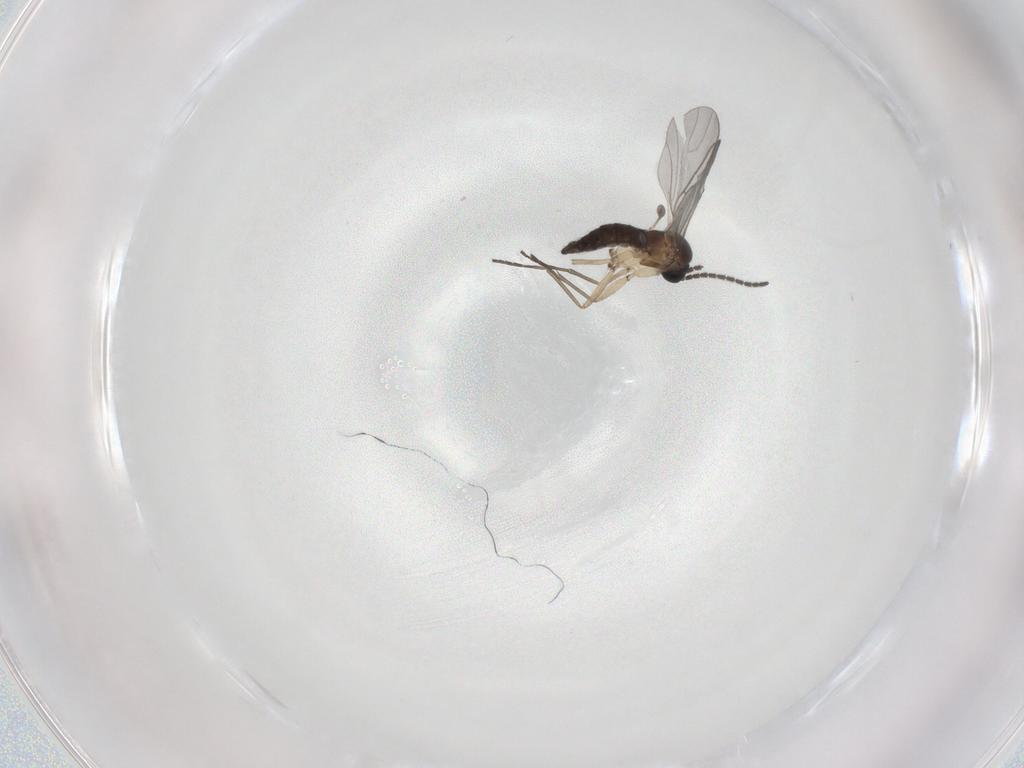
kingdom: Animalia
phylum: Arthropoda
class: Insecta
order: Diptera
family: Sciaridae
